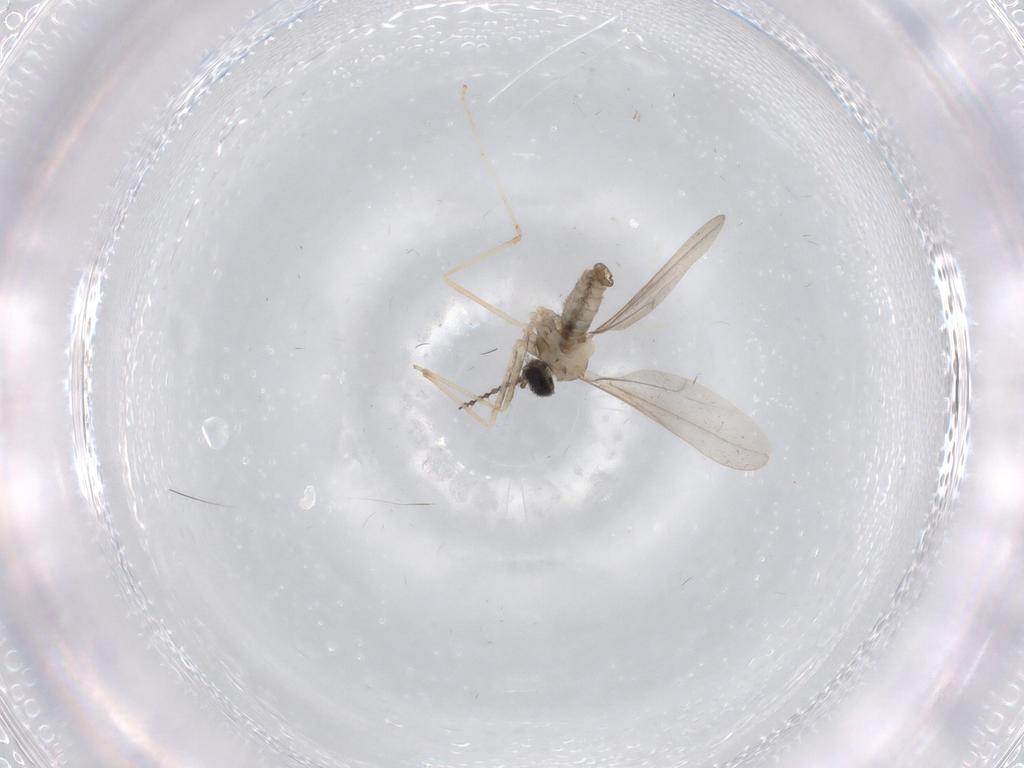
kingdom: Animalia
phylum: Arthropoda
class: Insecta
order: Diptera
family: Cecidomyiidae
